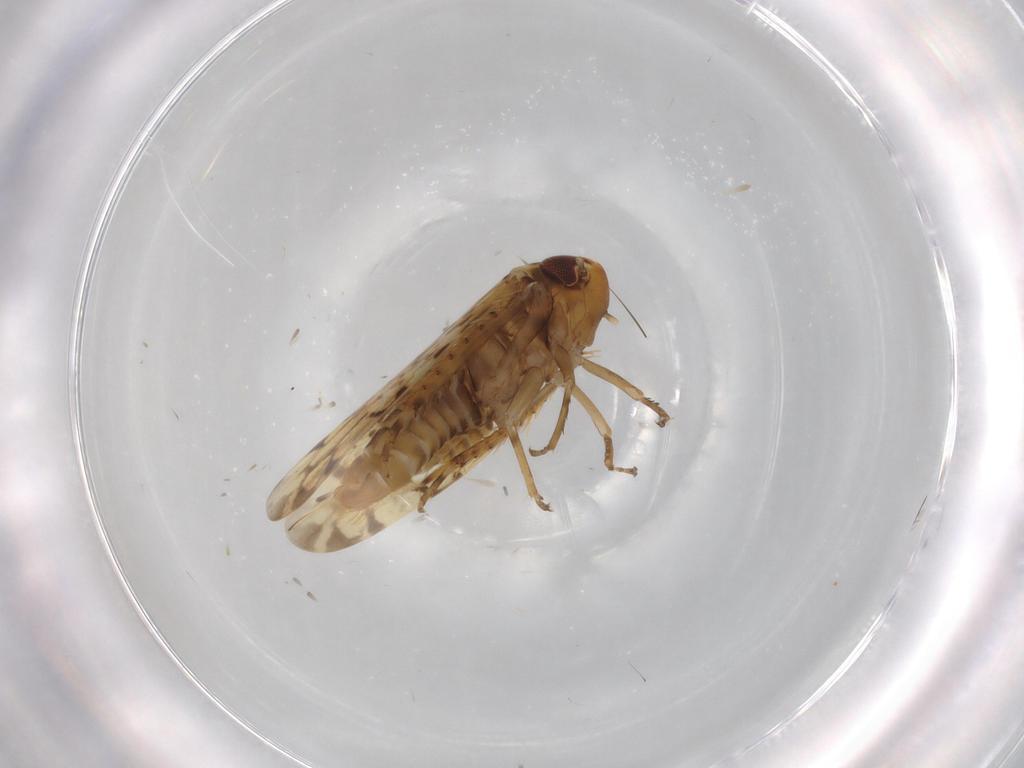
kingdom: Animalia
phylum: Arthropoda
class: Insecta
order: Hemiptera
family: Cicadellidae
